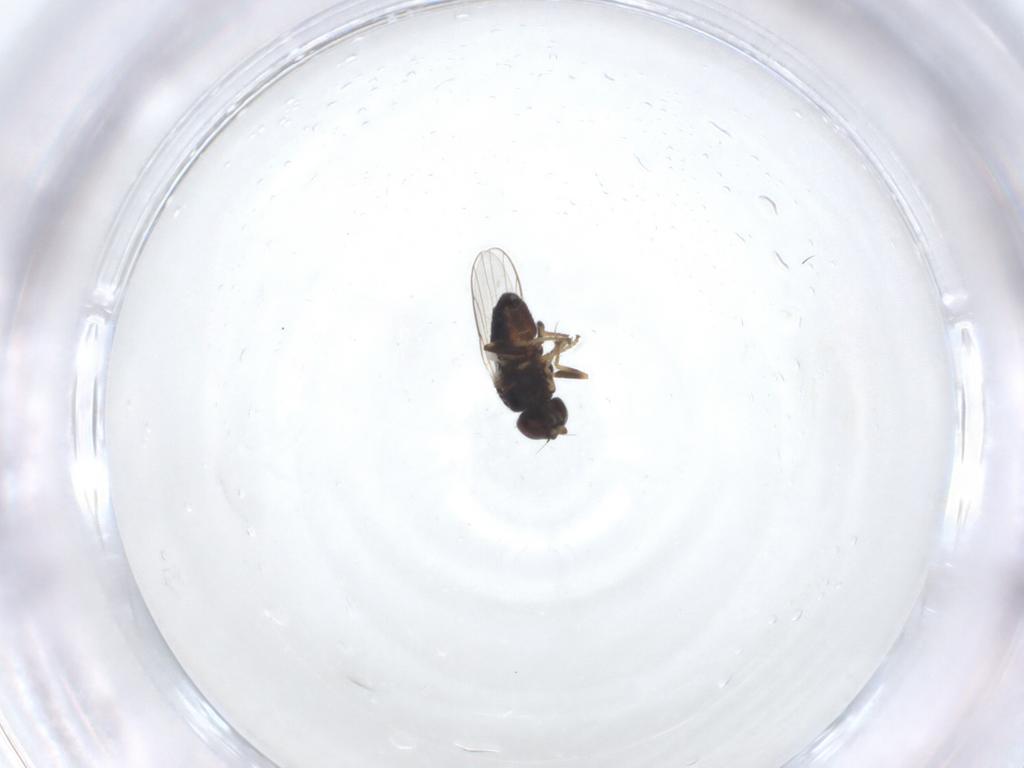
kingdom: Animalia
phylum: Arthropoda
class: Insecta
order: Diptera
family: Chloropidae
